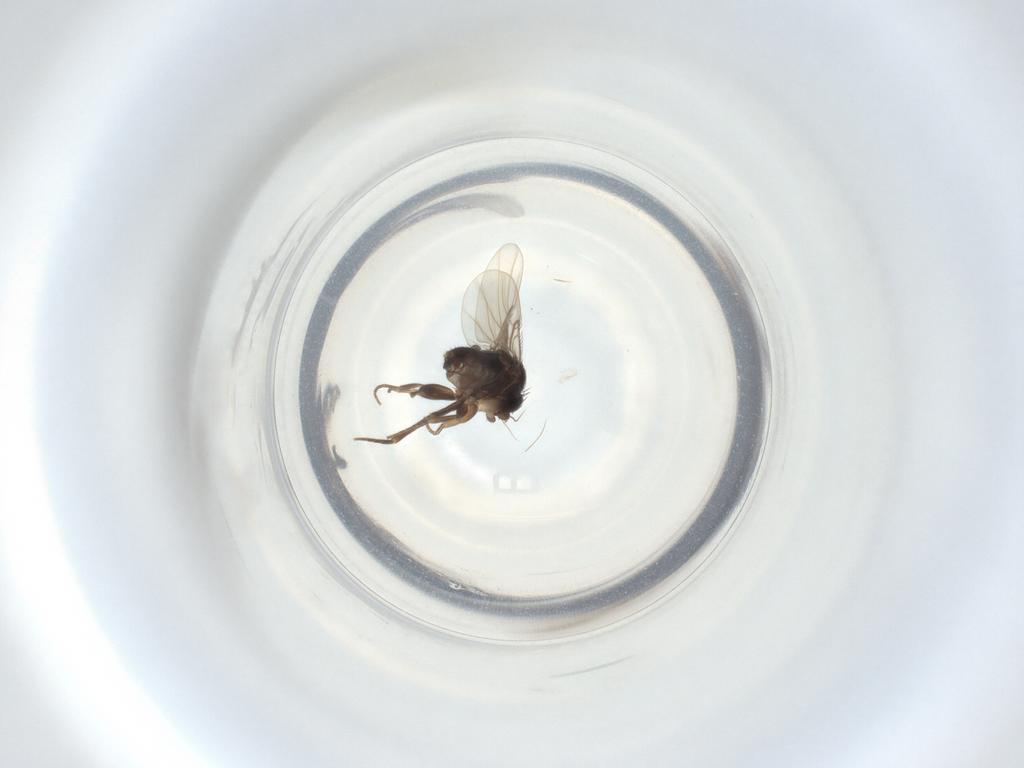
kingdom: Animalia
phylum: Arthropoda
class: Insecta
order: Diptera
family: Phoridae
